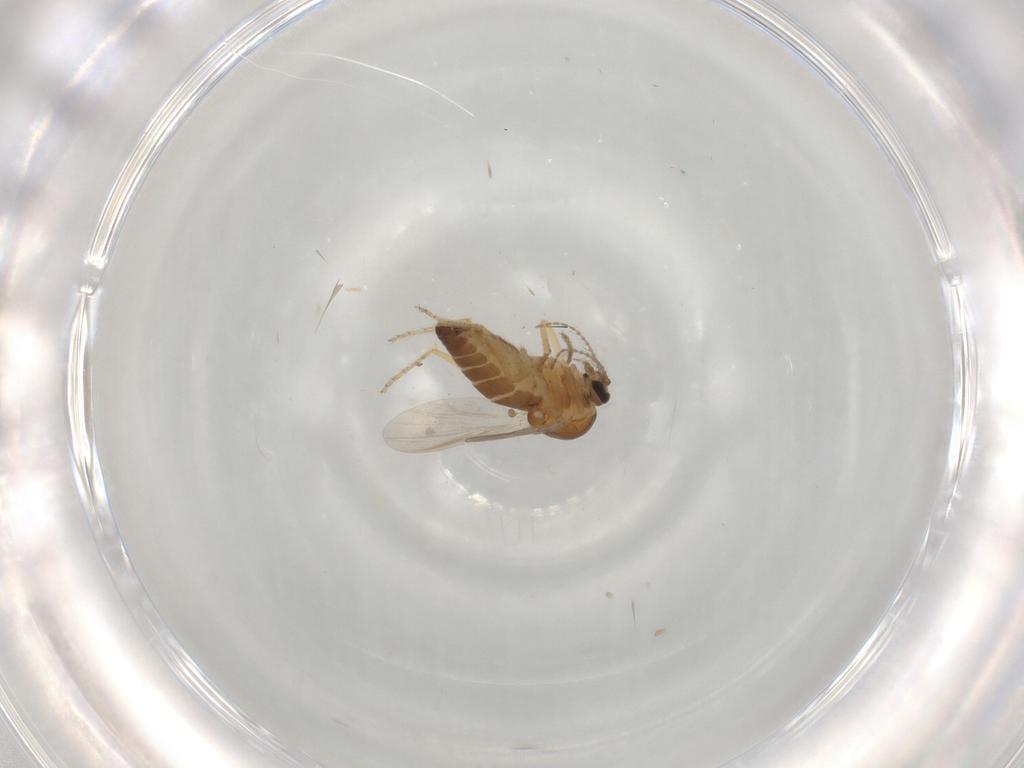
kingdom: Animalia
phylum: Arthropoda
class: Insecta
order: Diptera
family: Ceratopogonidae
